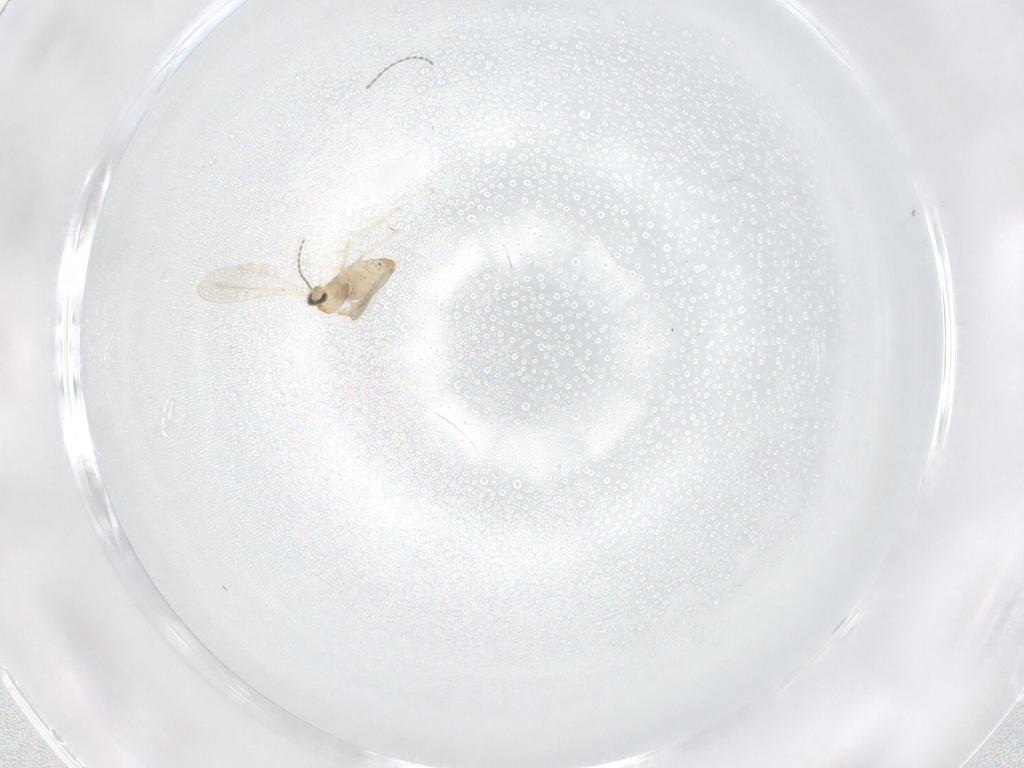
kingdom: Animalia
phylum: Arthropoda
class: Insecta
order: Diptera
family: Cecidomyiidae
